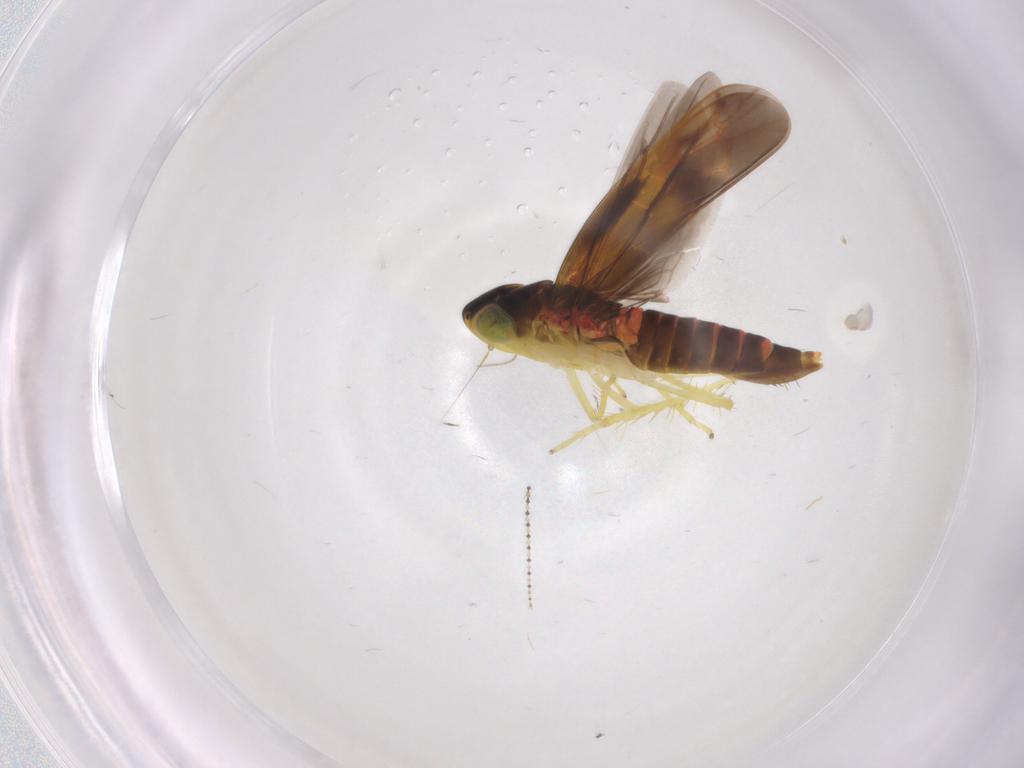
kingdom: Animalia
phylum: Arthropoda
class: Insecta
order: Hemiptera
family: Cicadellidae
